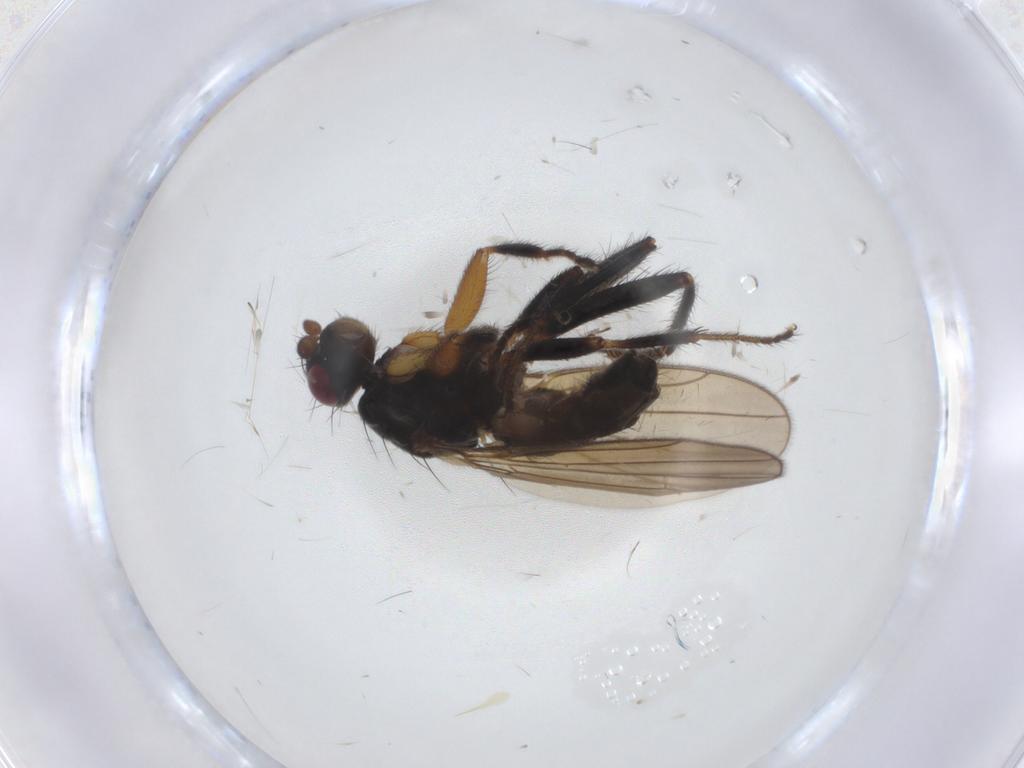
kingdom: Animalia
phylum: Arthropoda
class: Insecta
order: Diptera
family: Sphaeroceridae
